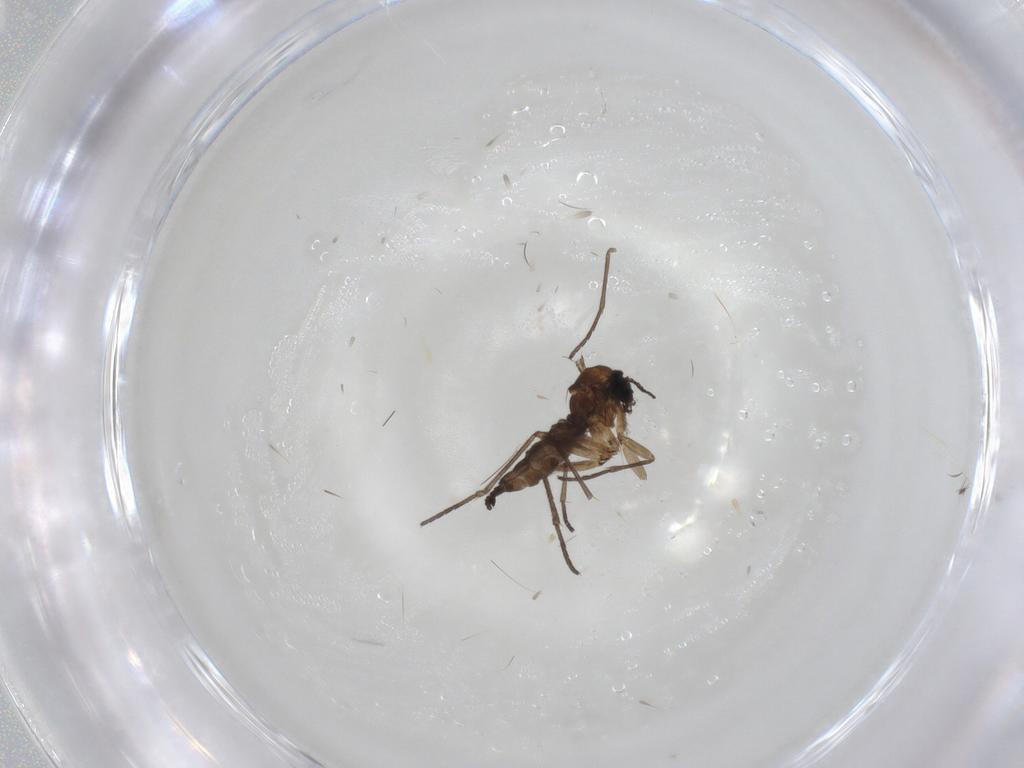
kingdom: Animalia
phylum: Arthropoda
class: Insecta
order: Diptera
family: Sciaridae
